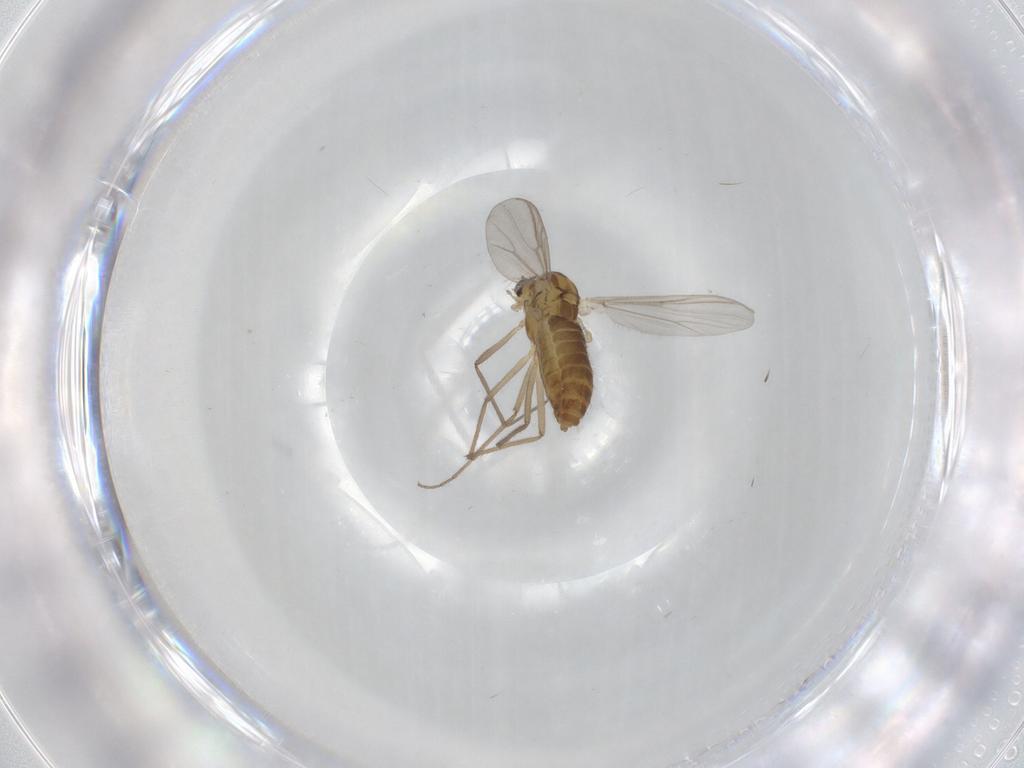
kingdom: Animalia
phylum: Arthropoda
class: Insecta
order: Diptera
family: Chironomidae
